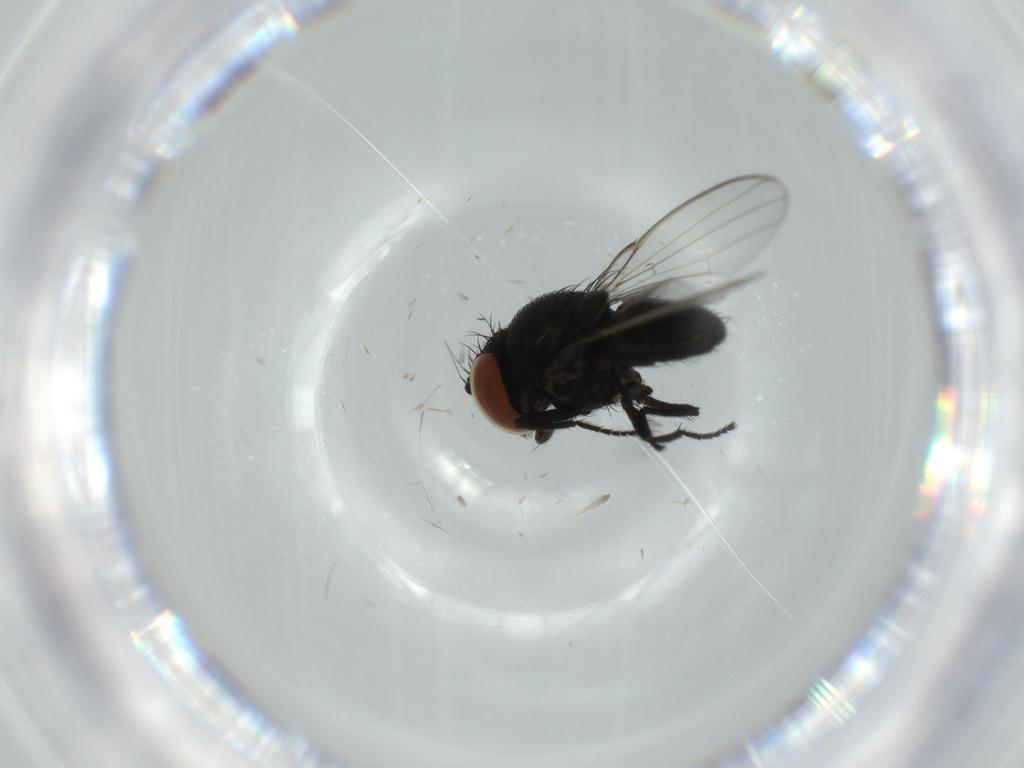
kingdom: Animalia
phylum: Arthropoda
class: Insecta
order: Diptera
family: Milichiidae
